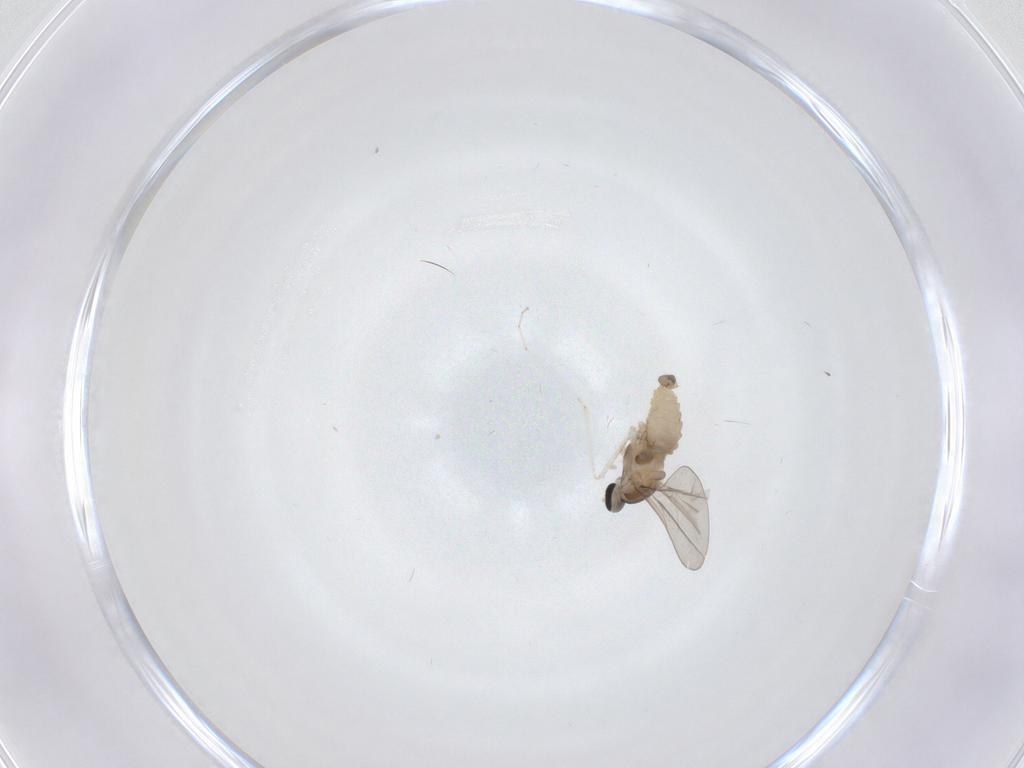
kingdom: Animalia
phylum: Arthropoda
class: Insecta
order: Diptera
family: Cecidomyiidae
